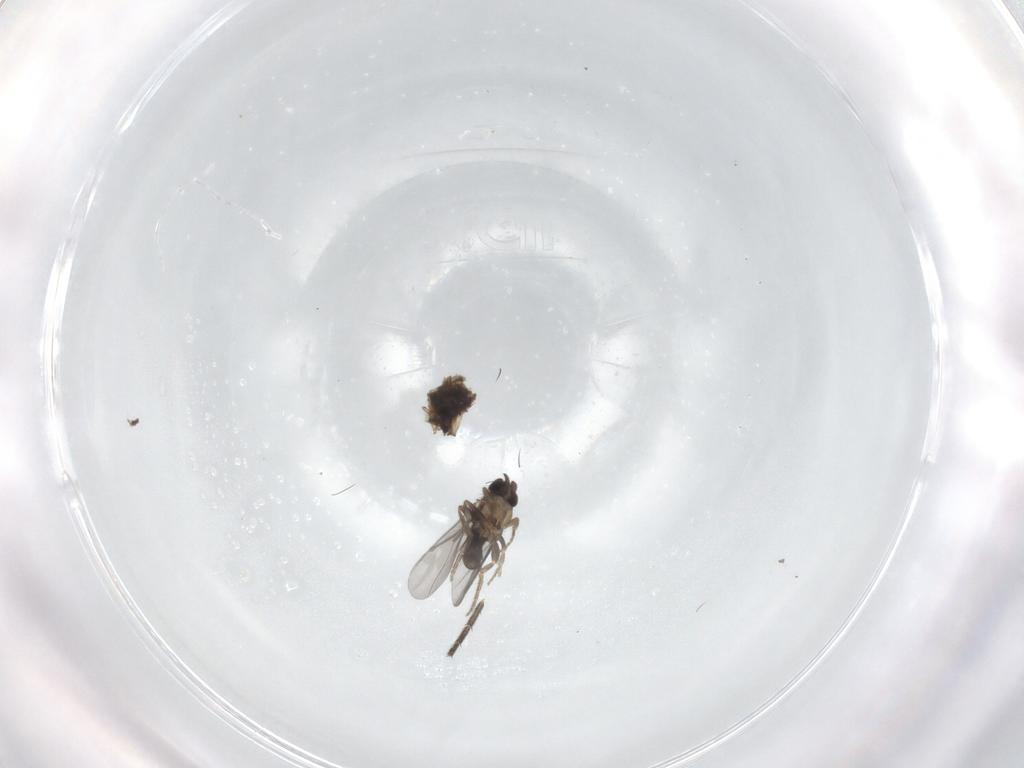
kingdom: Animalia
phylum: Arthropoda
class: Insecta
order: Diptera
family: Mycetophilidae
